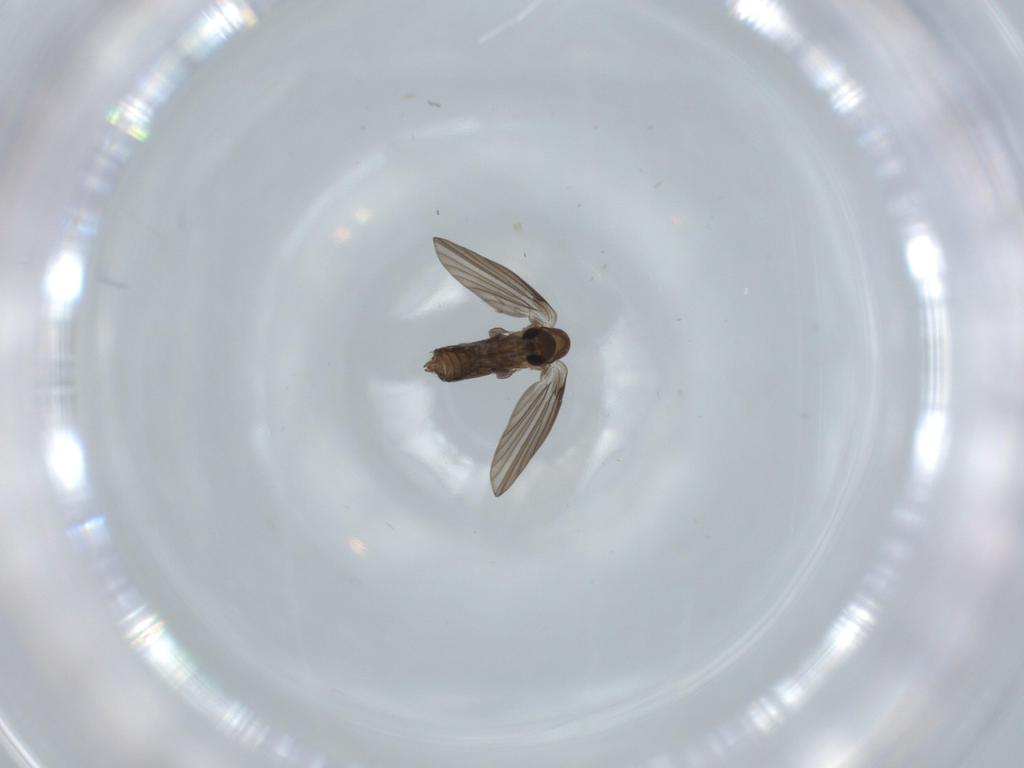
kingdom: Animalia
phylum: Arthropoda
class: Insecta
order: Diptera
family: Psychodidae
